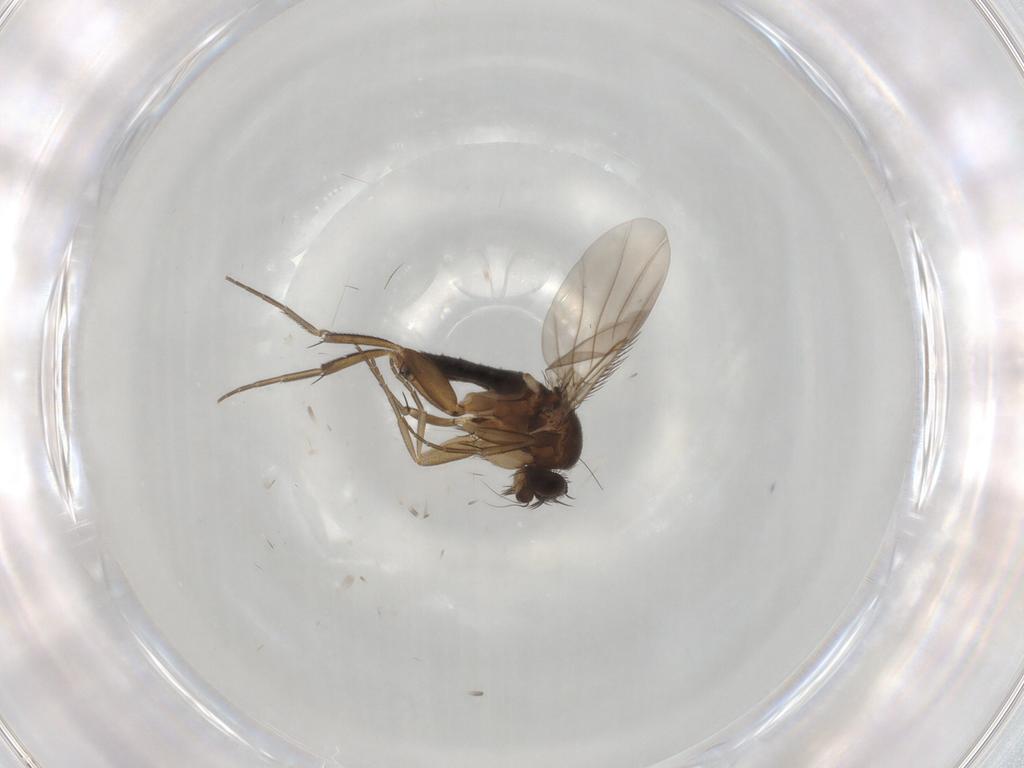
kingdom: Animalia
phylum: Arthropoda
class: Insecta
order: Diptera
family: Phoridae
